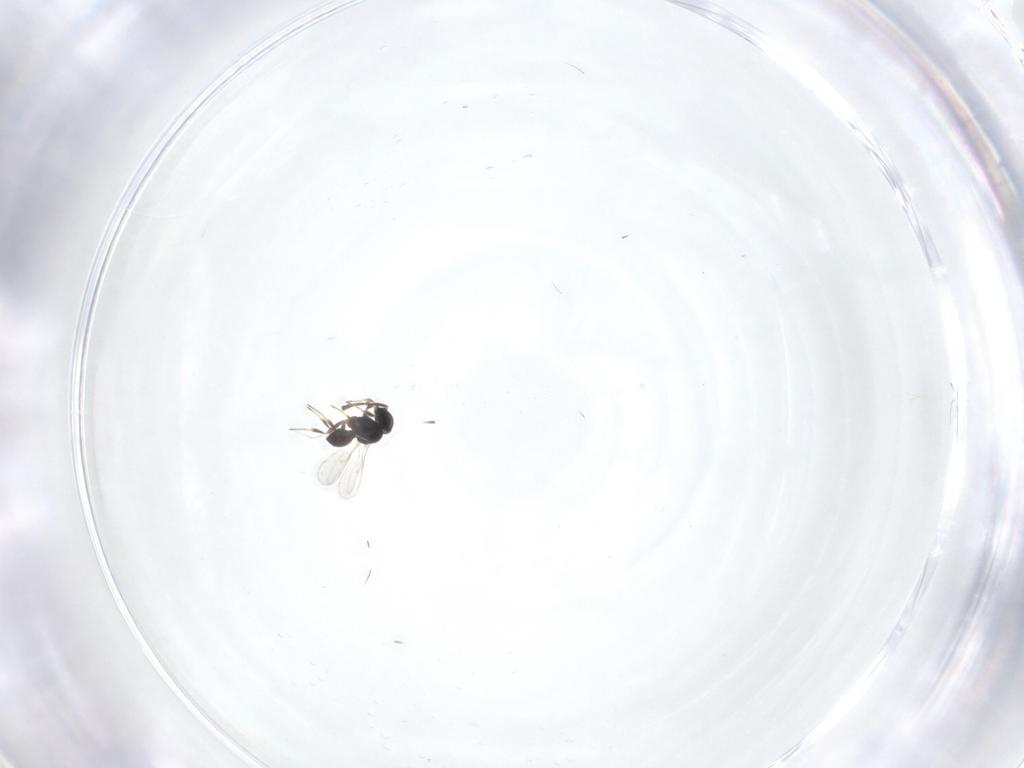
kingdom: Animalia
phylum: Arthropoda
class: Insecta
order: Hymenoptera
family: Scelionidae
